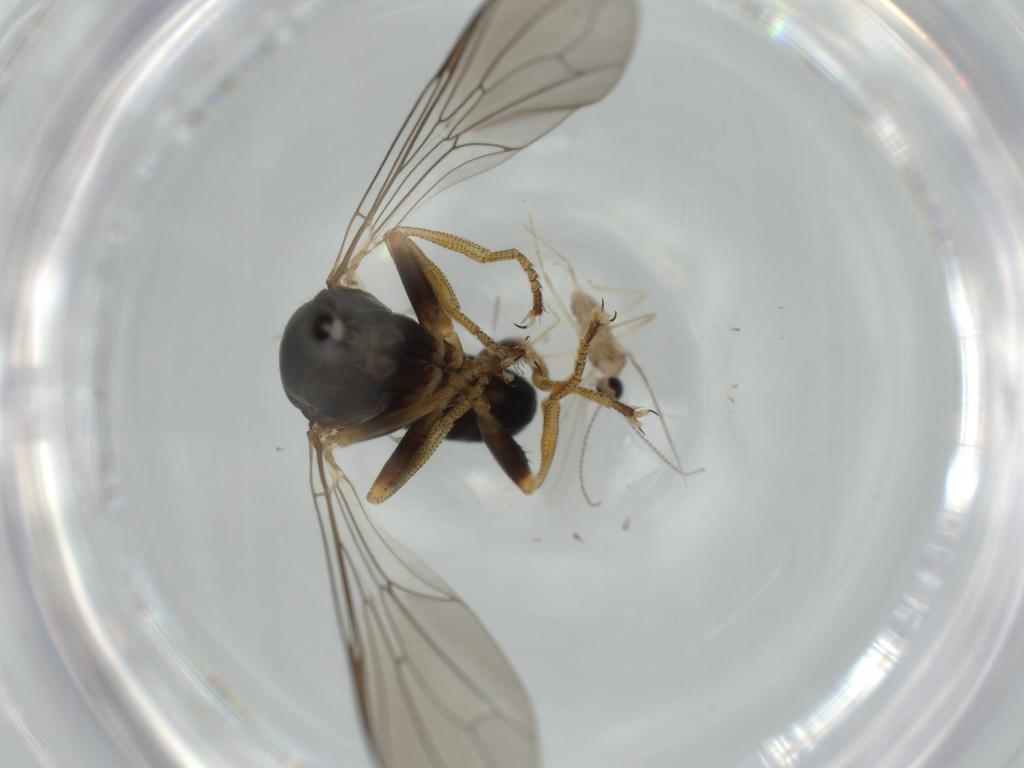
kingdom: Animalia
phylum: Arthropoda
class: Insecta
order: Diptera
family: Pipunculidae
